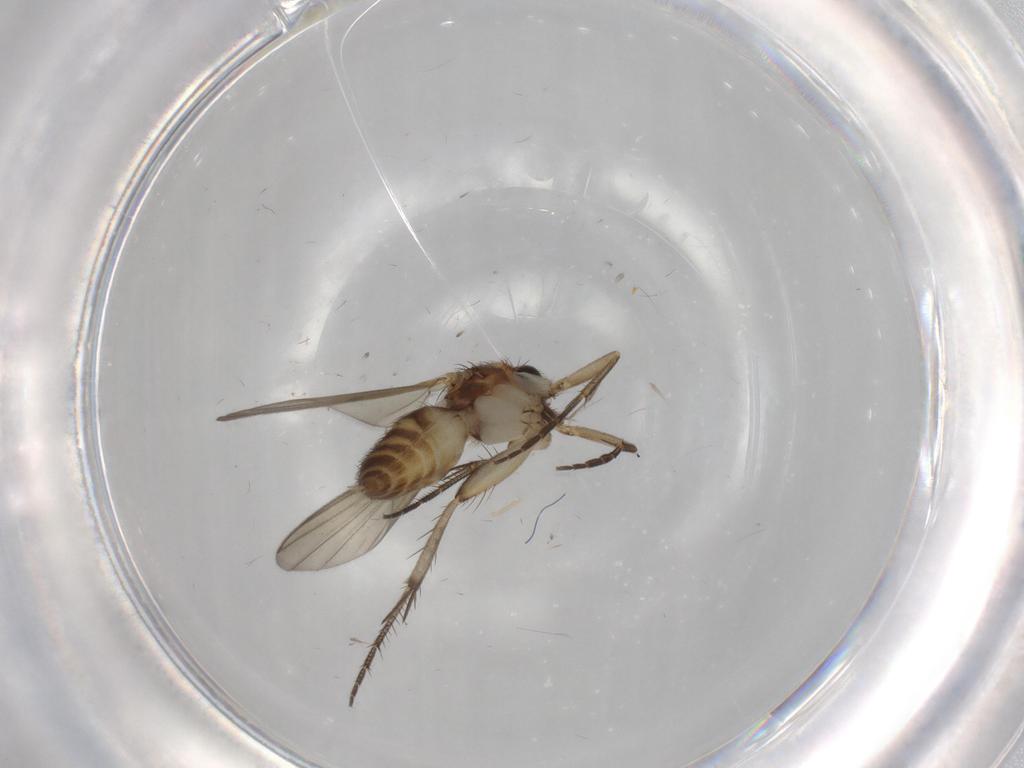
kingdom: Animalia
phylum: Arthropoda
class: Insecta
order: Diptera
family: Mycetophilidae
